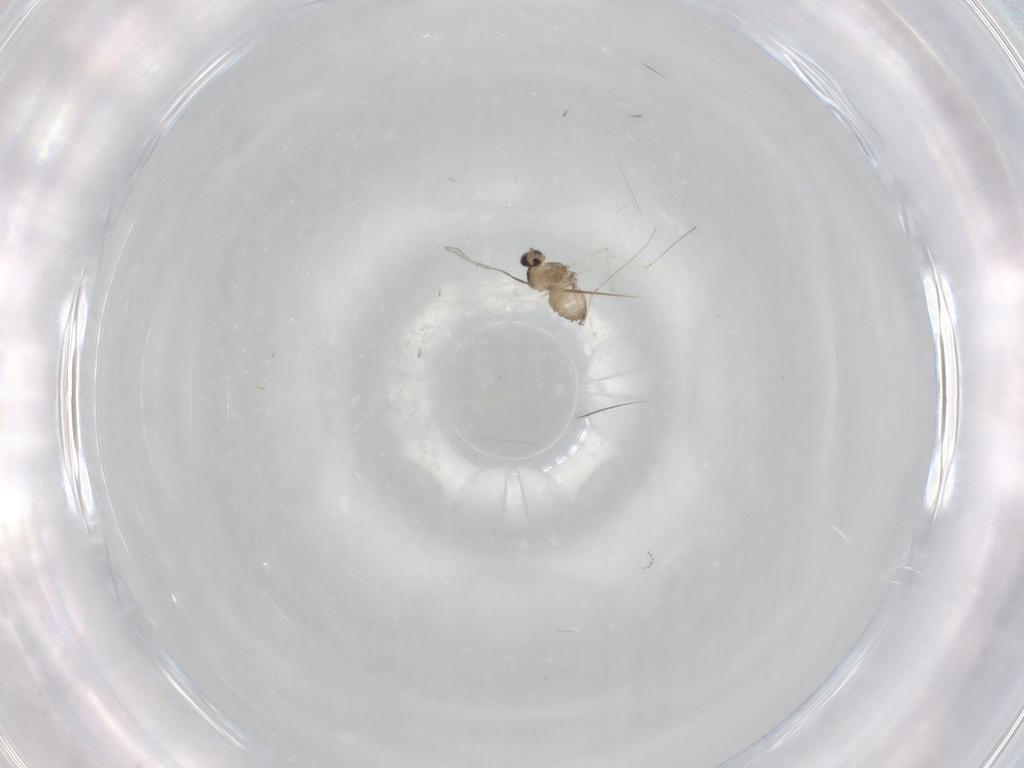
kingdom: Animalia
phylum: Arthropoda
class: Insecta
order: Diptera
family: Cecidomyiidae
